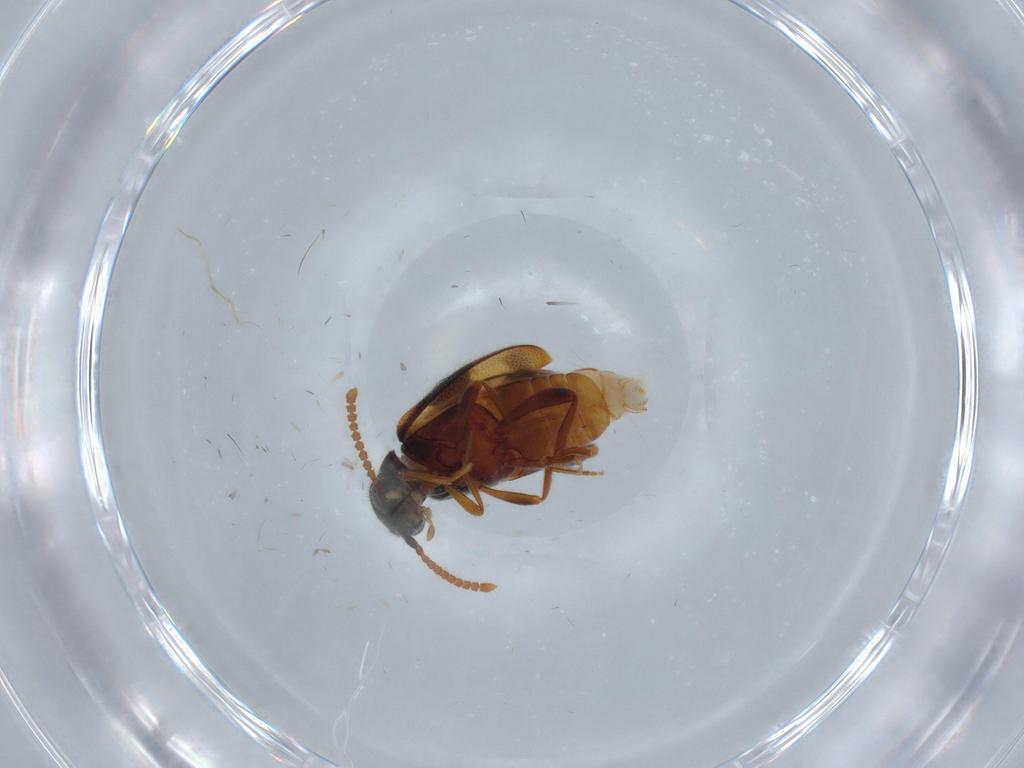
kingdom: Animalia
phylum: Arthropoda
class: Insecta
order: Coleoptera
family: Aderidae
